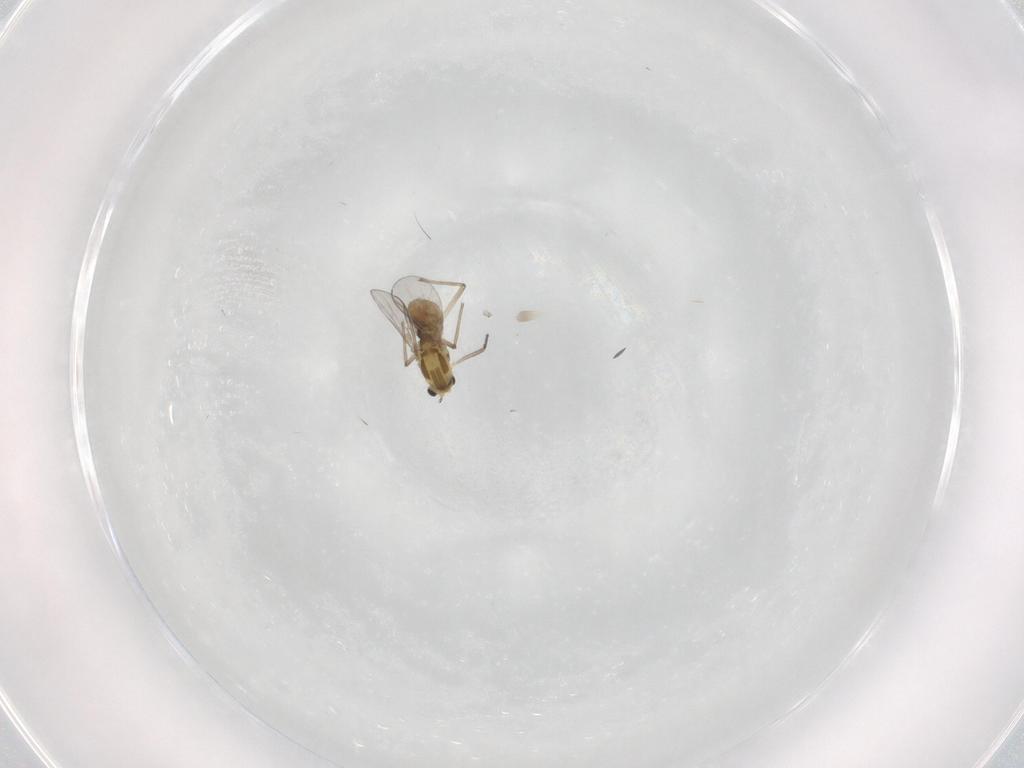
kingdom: Animalia
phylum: Arthropoda
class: Insecta
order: Diptera
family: Chironomidae
